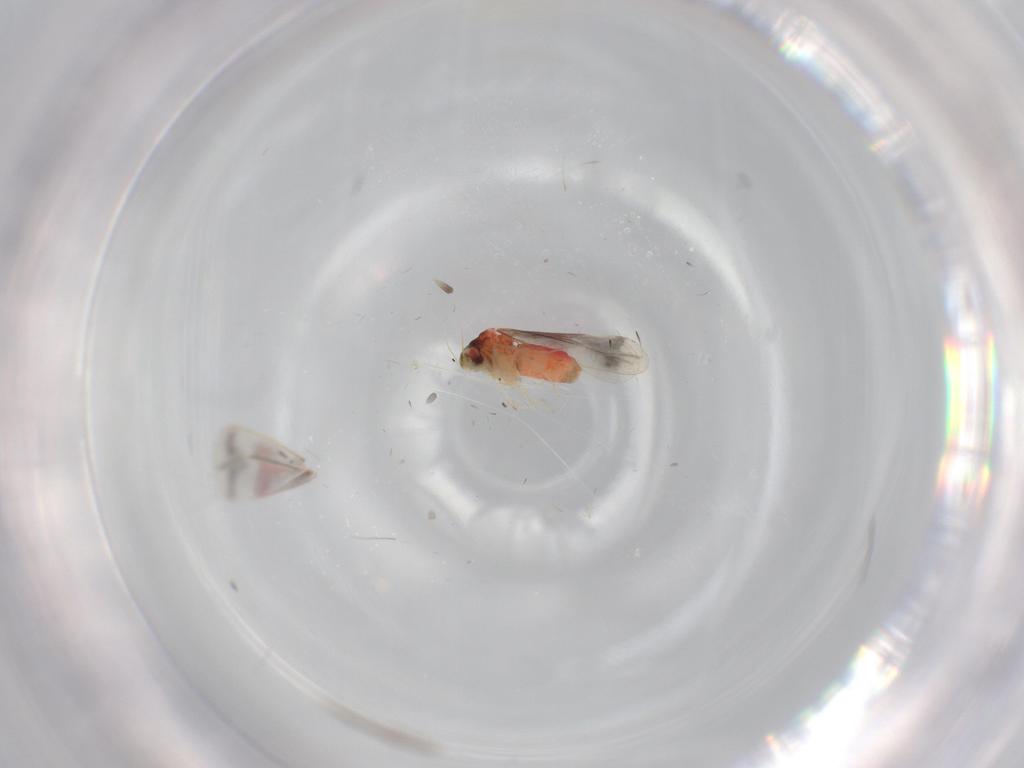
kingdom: Animalia
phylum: Arthropoda
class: Insecta
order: Hemiptera
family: Aleyrodidae
